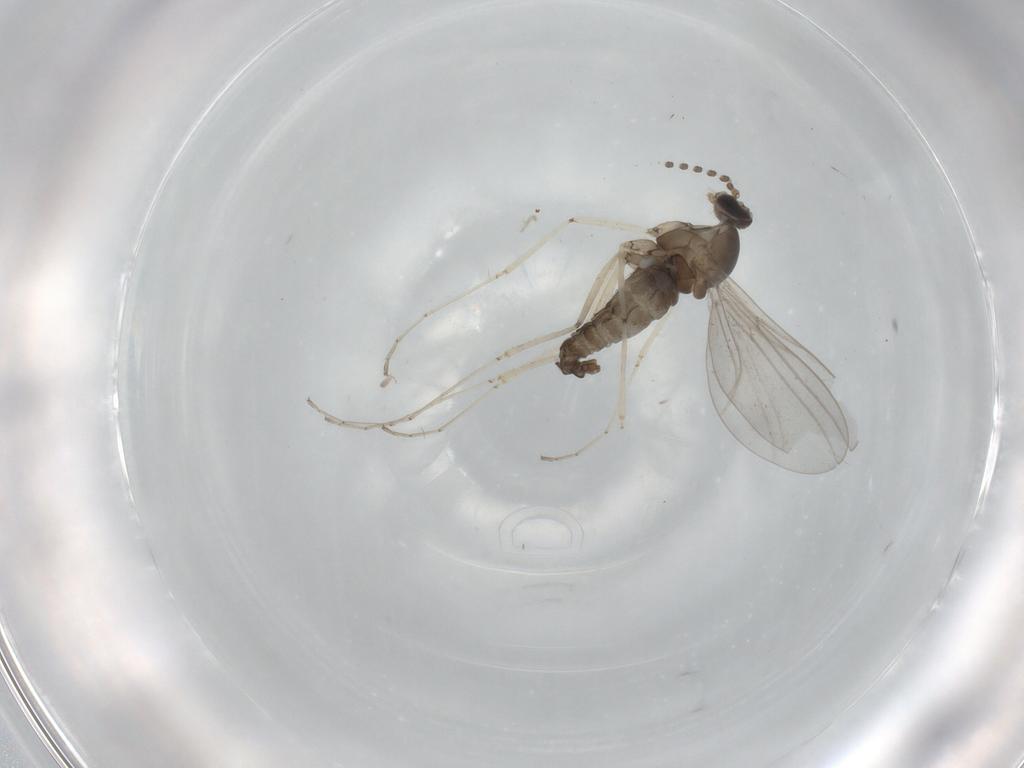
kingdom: Animalia
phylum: Arthropoda
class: Insecta
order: Diptera
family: Cecidomyiidae
